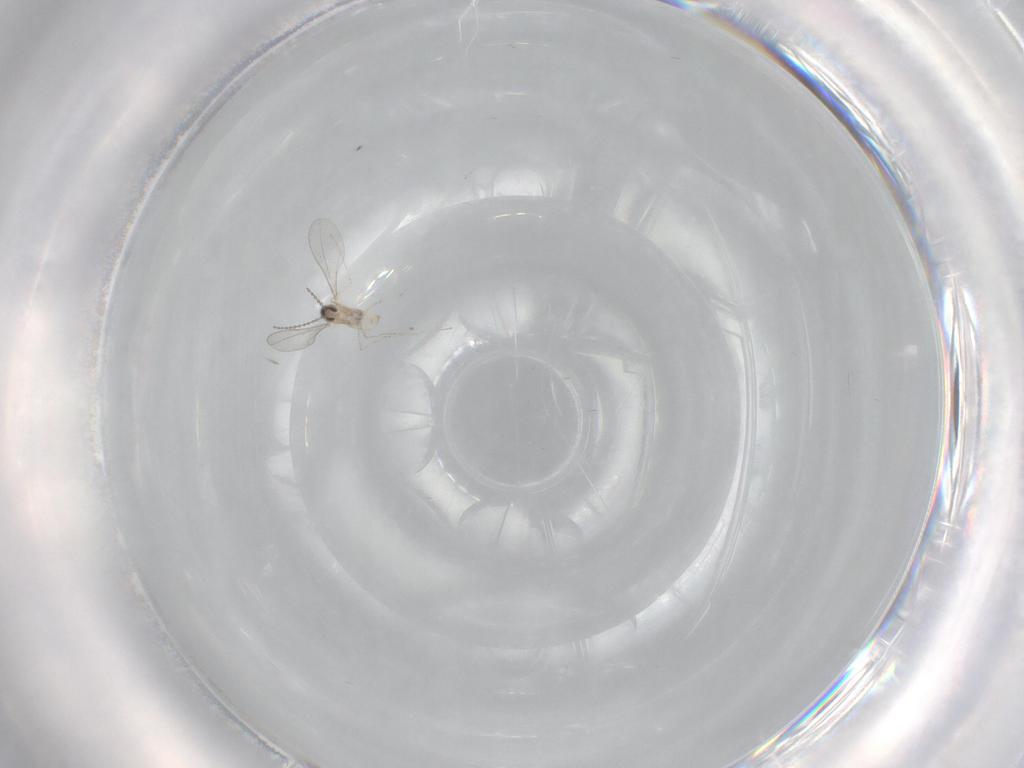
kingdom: Animalia
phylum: Arthropoda
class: Insecta
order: Diptera
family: Cecidomyiidae
